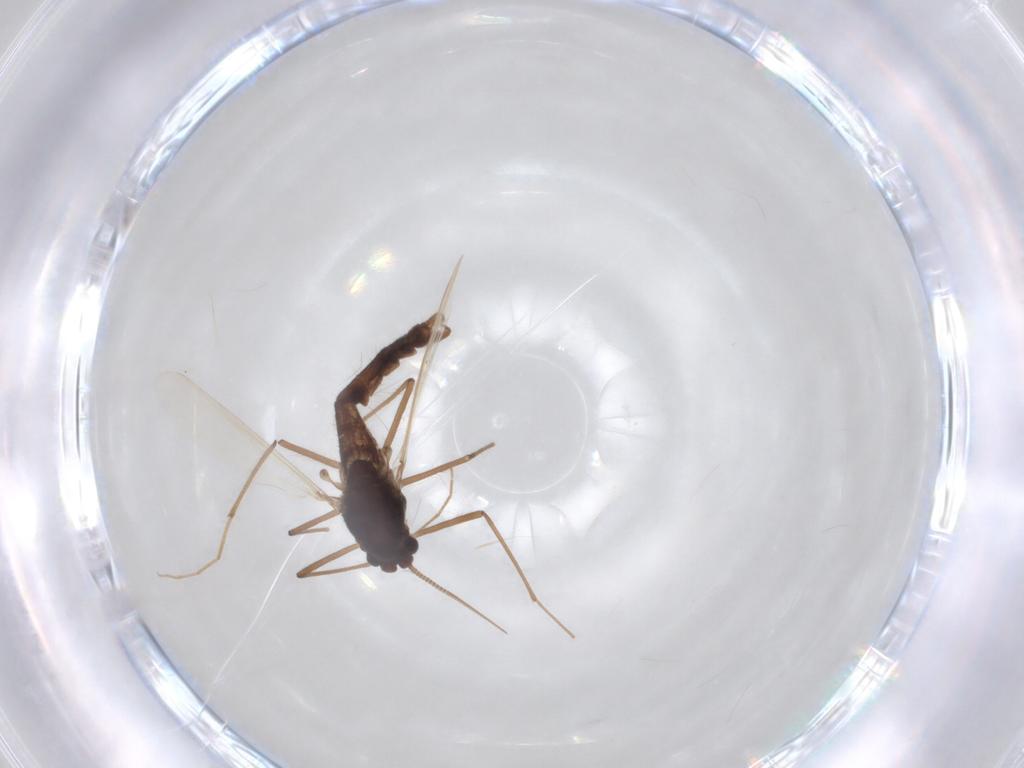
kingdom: Animalia
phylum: Arthropoda
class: Insecta
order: Diptera
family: Chironomidae
